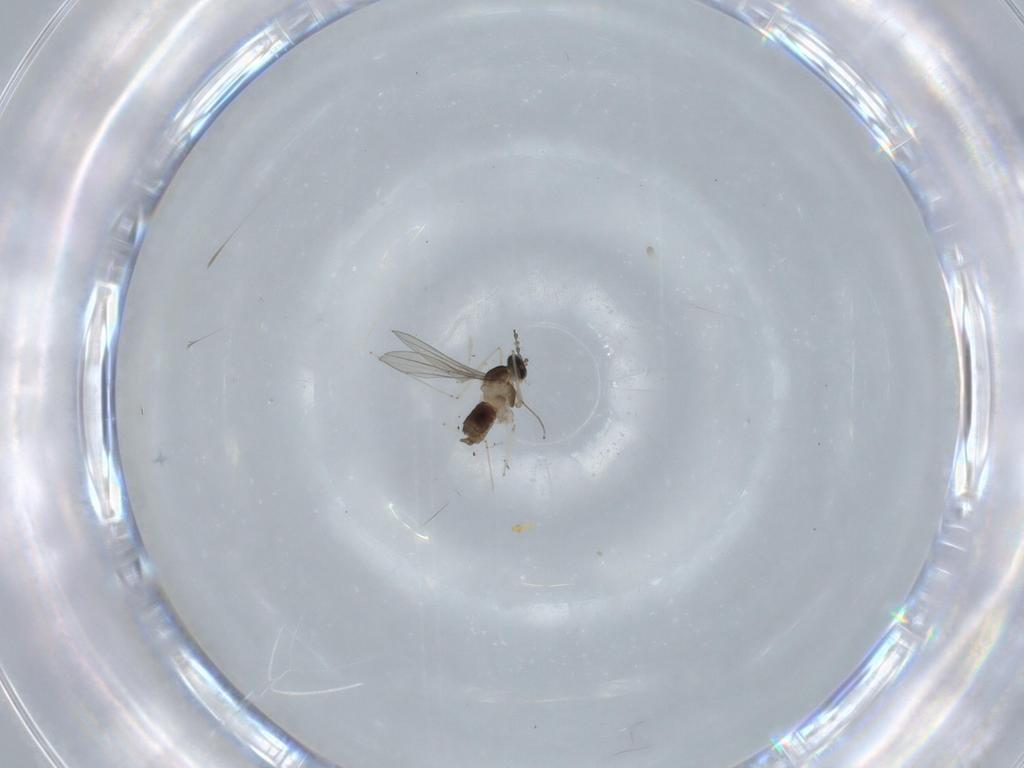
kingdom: Animalia
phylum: Arthropoda
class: Insecta
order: Diptera
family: Cecidomyiidae
